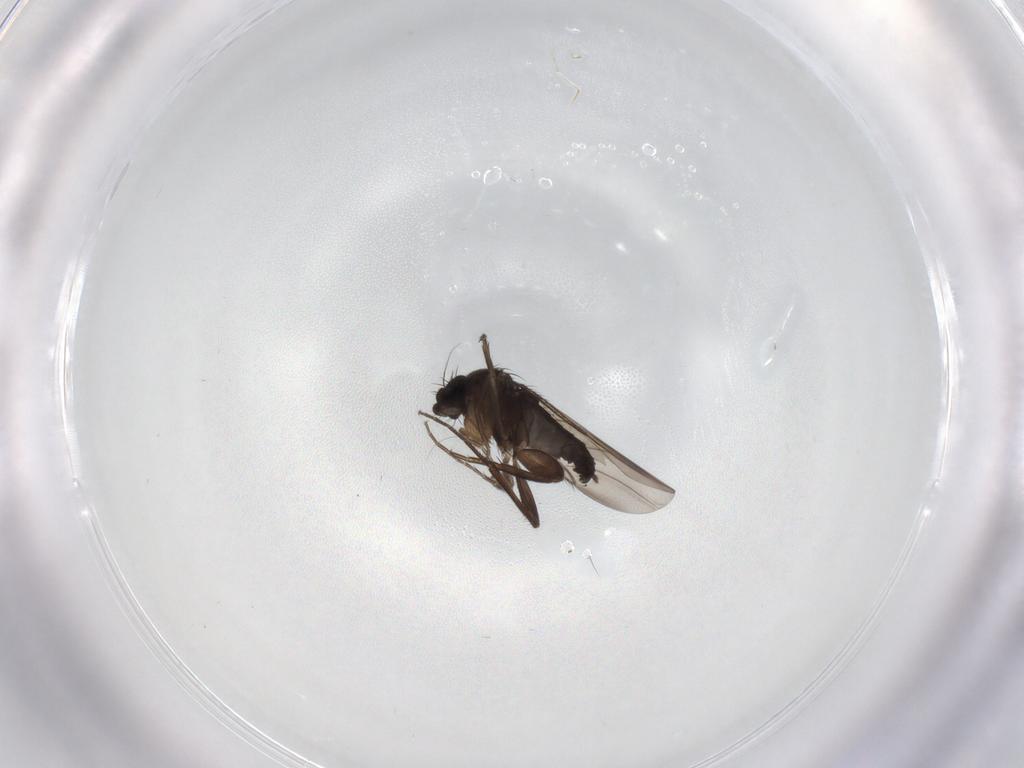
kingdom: Animalia
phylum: Arthropoda
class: Insecta
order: Diptera
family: Phoridae
